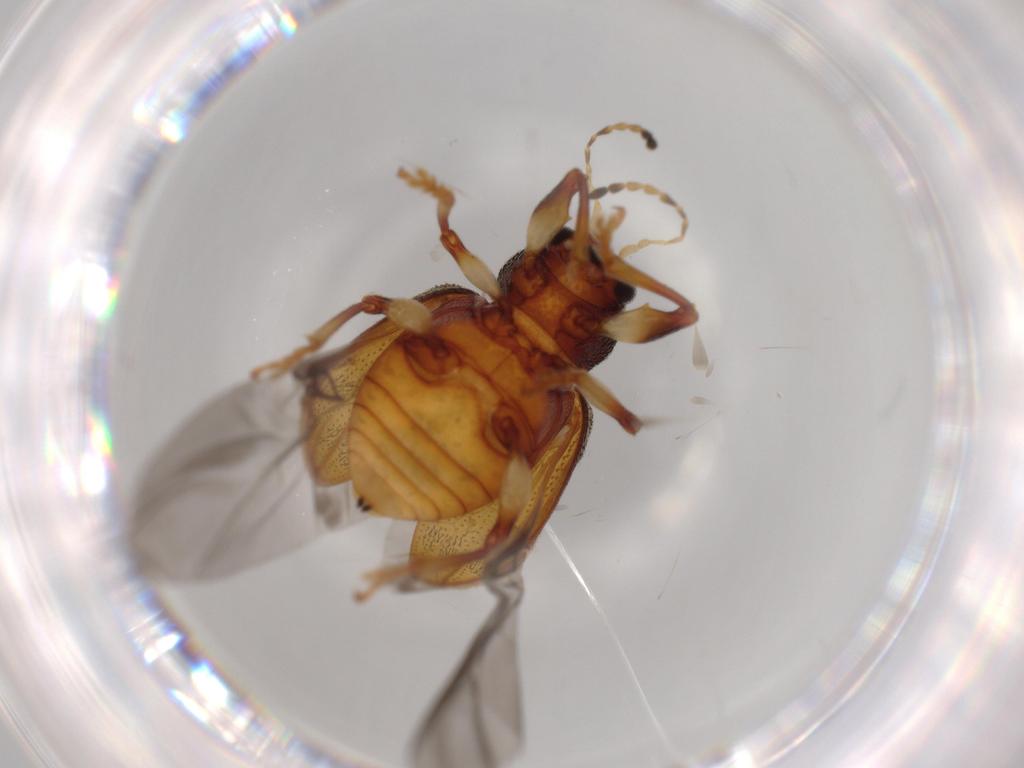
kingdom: Animalia
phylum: Arthropoda
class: Insecta
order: Coleoptera
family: Chrysomelidae
